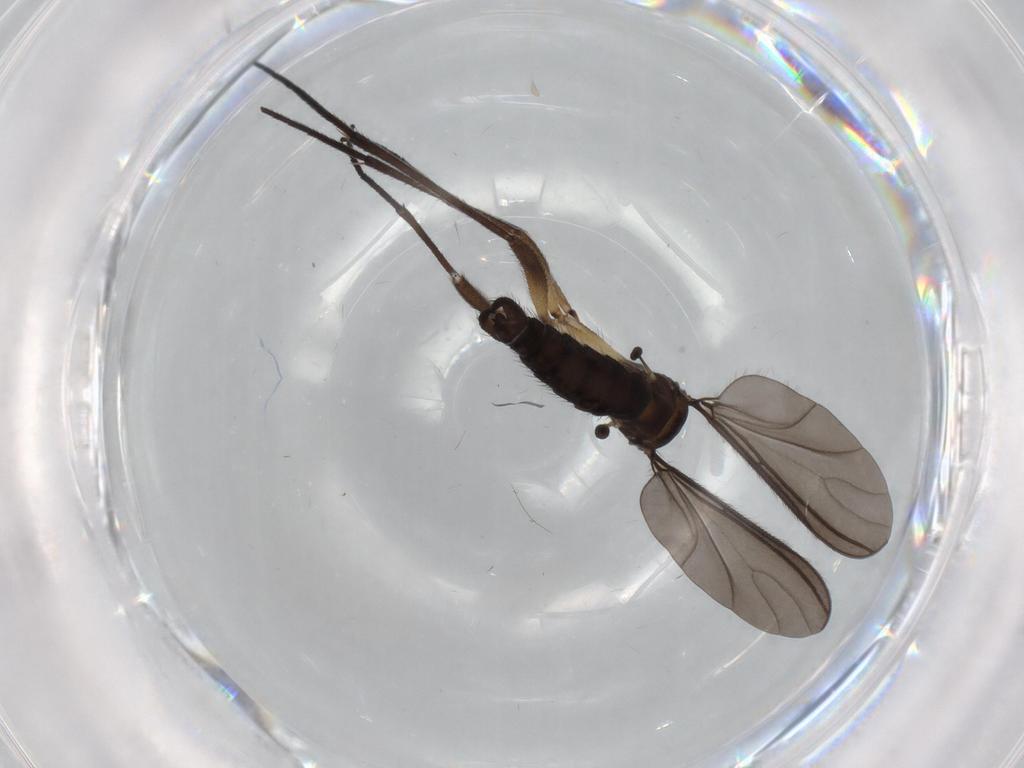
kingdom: Animalia
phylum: Arthropoda
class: Insecta
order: Diptera
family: Sciaridae
